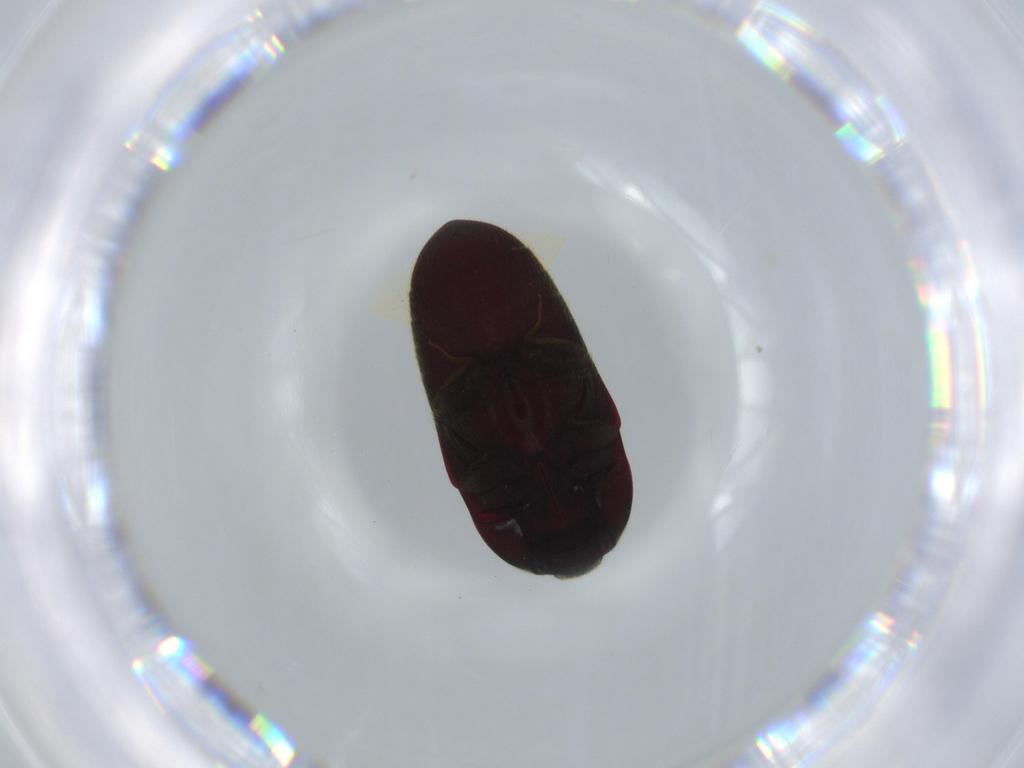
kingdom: Animalia
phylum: Arthropoda
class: Insecta
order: Coleoptera
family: Throscidae
